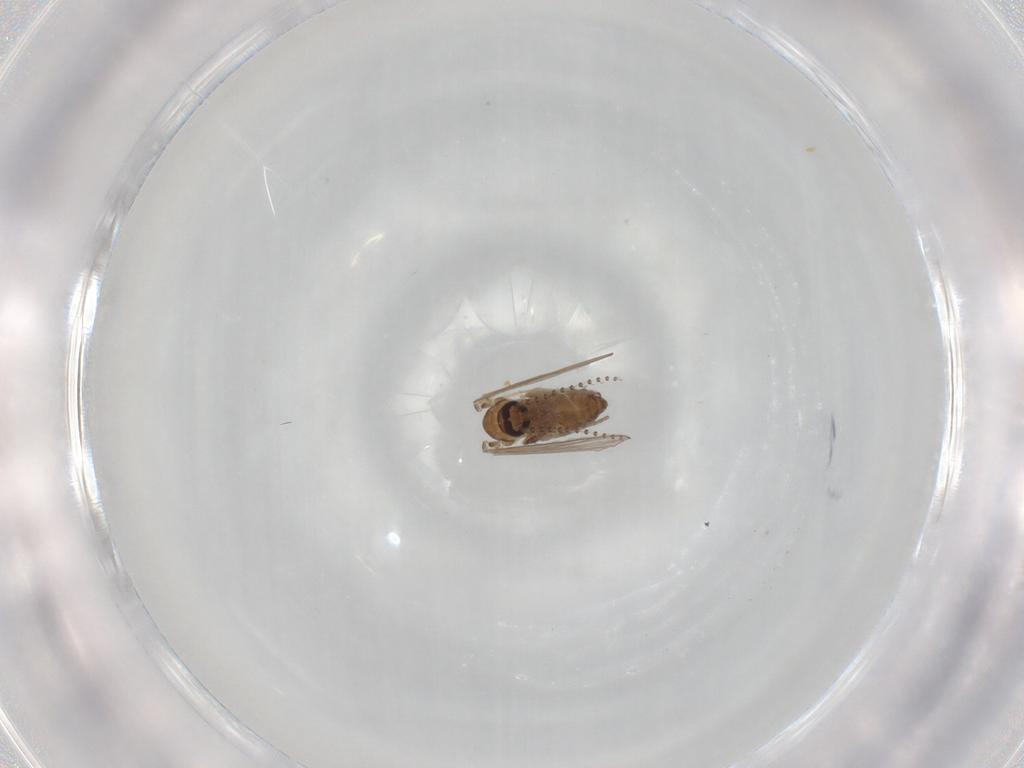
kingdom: Animalia
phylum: Arthropoda
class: Insecta
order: Diptera
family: Psychodidae
